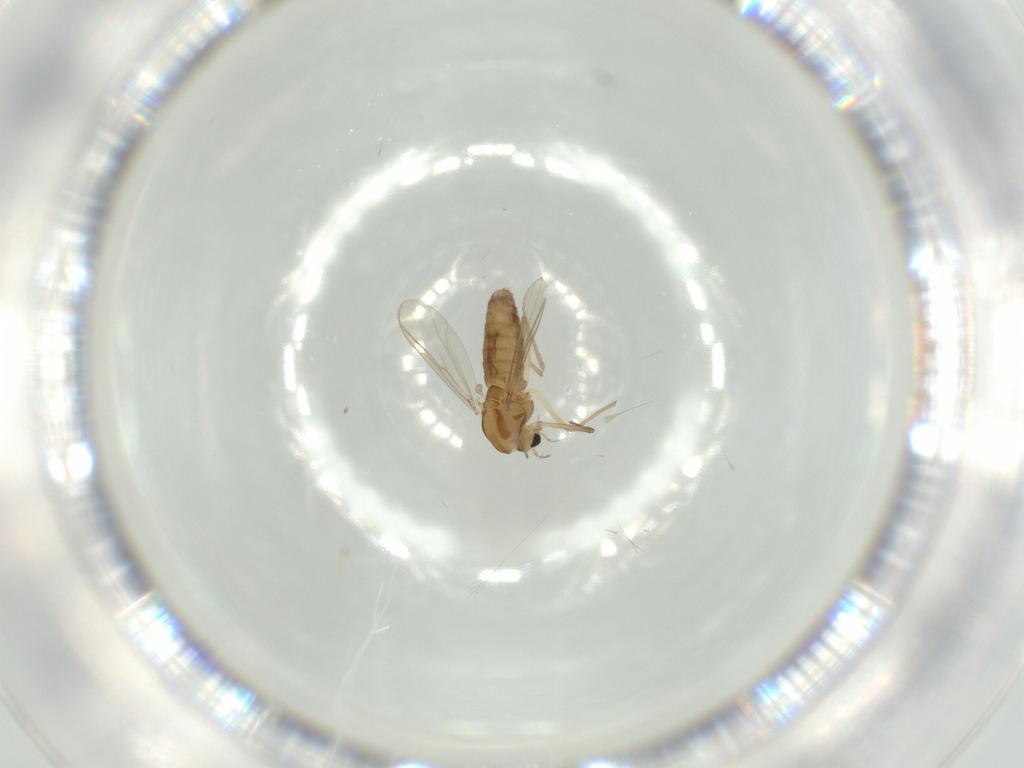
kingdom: Animalia
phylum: Arthropoda
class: Insecta
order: Diptera
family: Chironomidae
